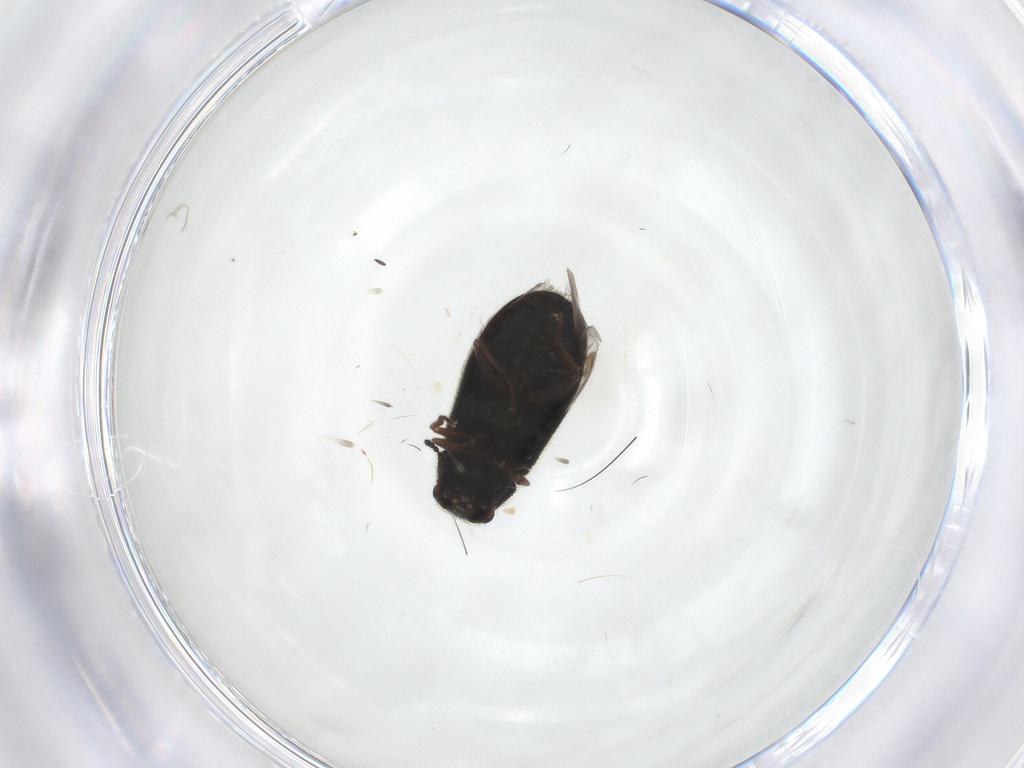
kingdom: Animalia
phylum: Arthropoda
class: Insecta
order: Coleoptera
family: Melyridae
